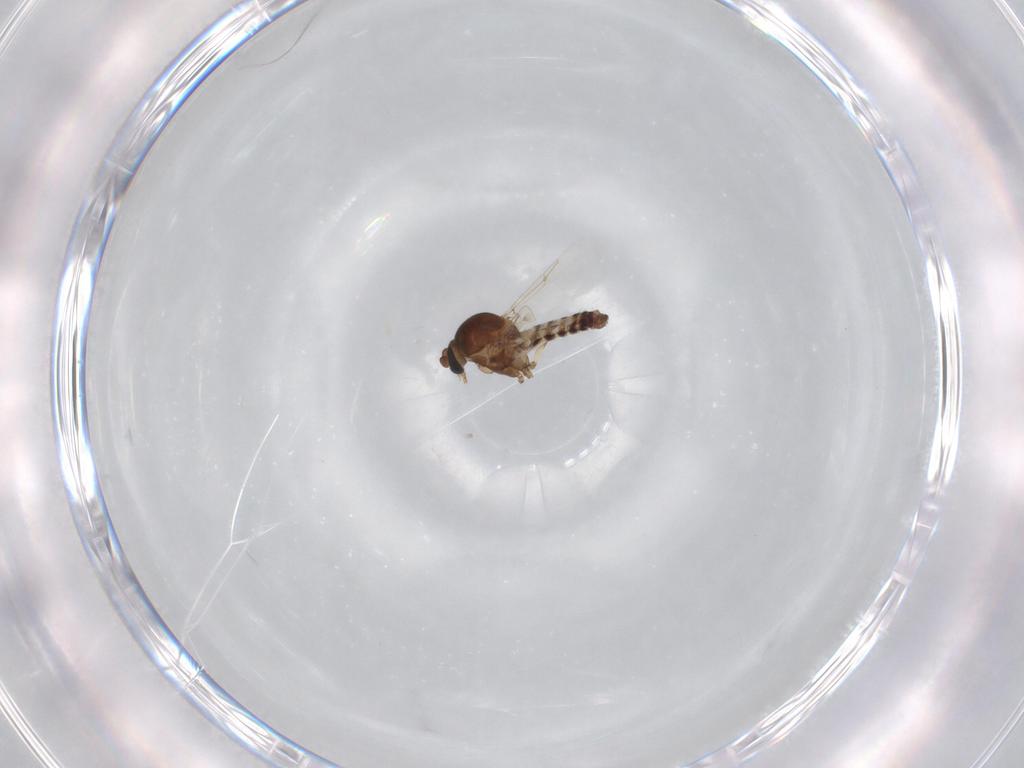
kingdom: Animalia
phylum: Arthropoda
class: Insecta
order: Diptera
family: Ceratopogonidae
